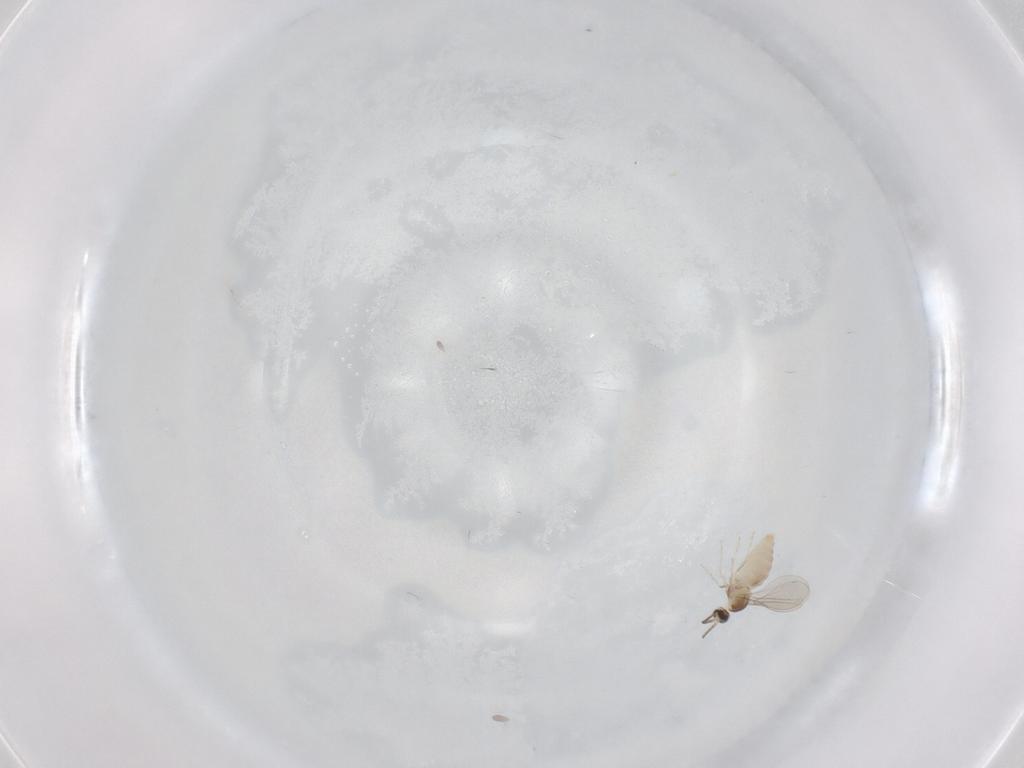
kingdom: Animalia
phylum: Arthropoda
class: Insecta
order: Diptera
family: Cecidomyiidae
